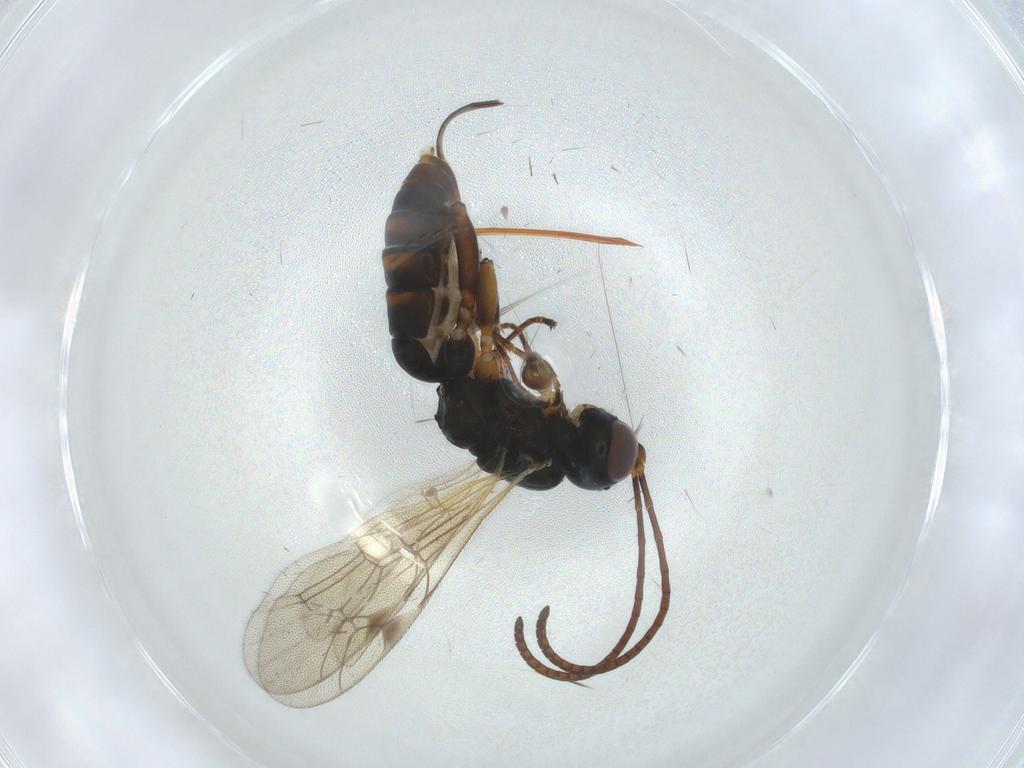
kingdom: Animalia
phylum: Arthropoda
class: Insecta
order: Hymenoptera
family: Ichneumonidae
